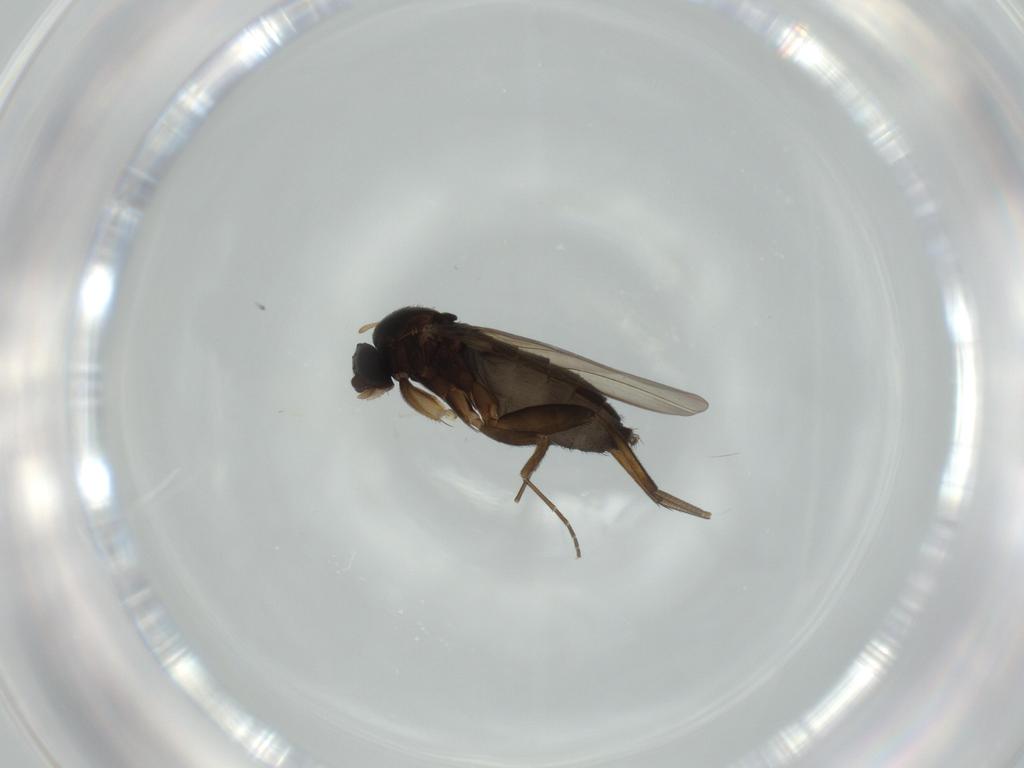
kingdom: Animalia
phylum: Arthropoda
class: Insecta
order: Diptera
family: Phoridae
